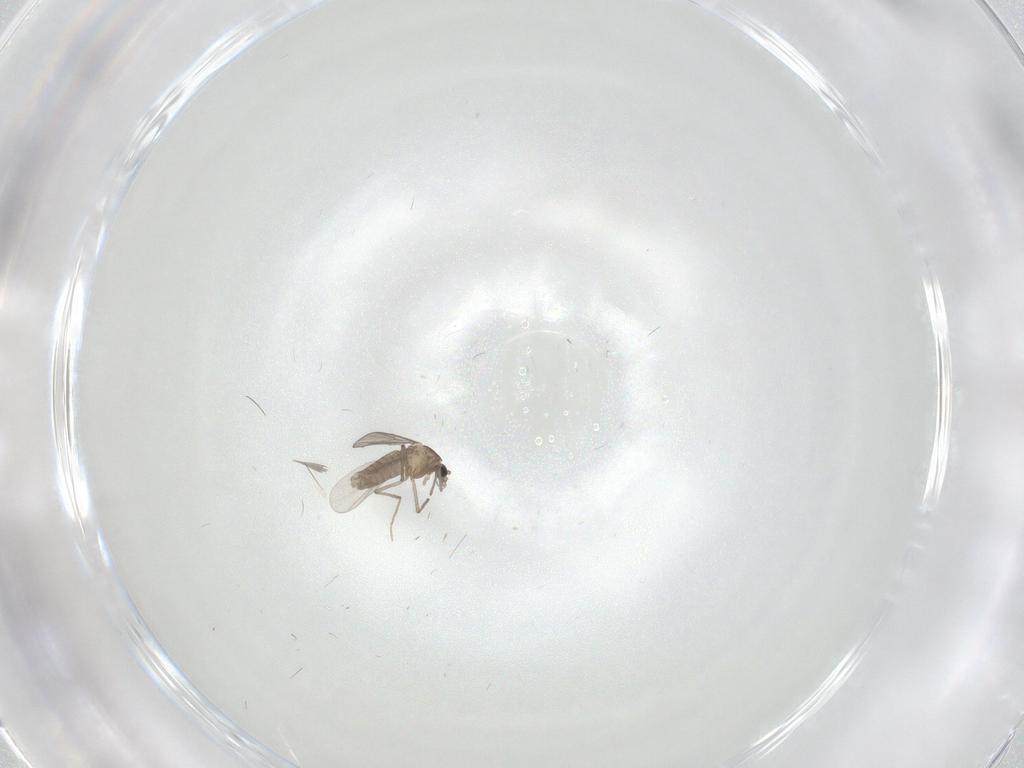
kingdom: Animalia
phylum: Arthropoda
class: Insecta
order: Diptera
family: Chironomidae
